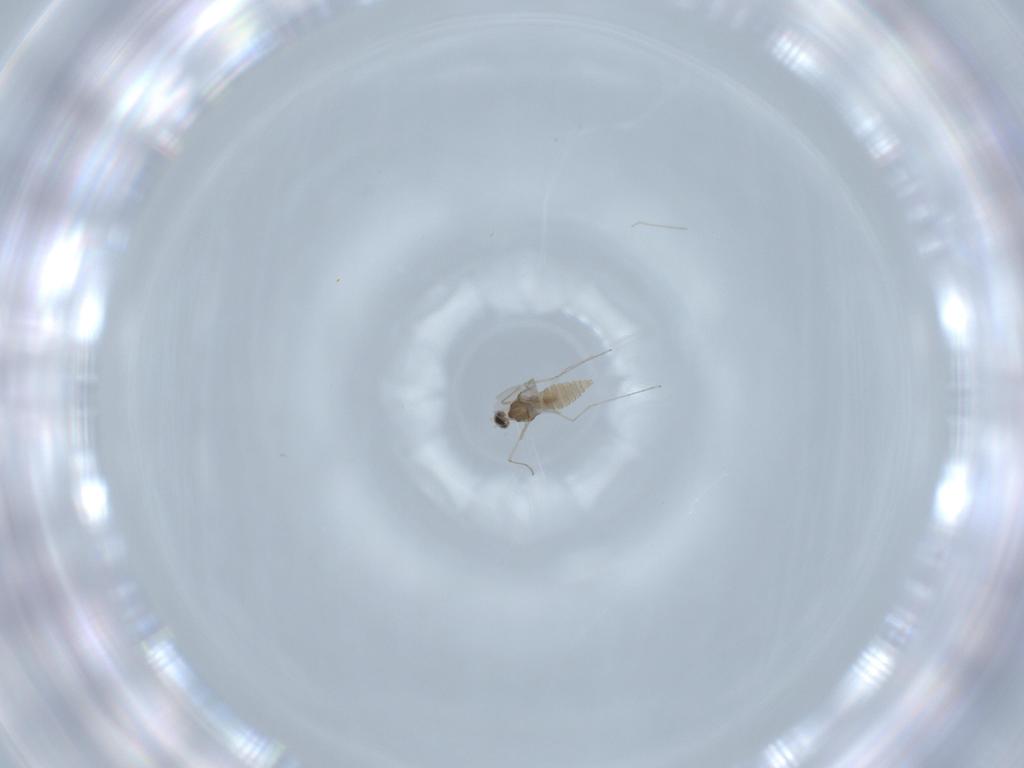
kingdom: Animalia
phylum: Arthropoda
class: Insecta
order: Diptera
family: Cecidomyiidae
